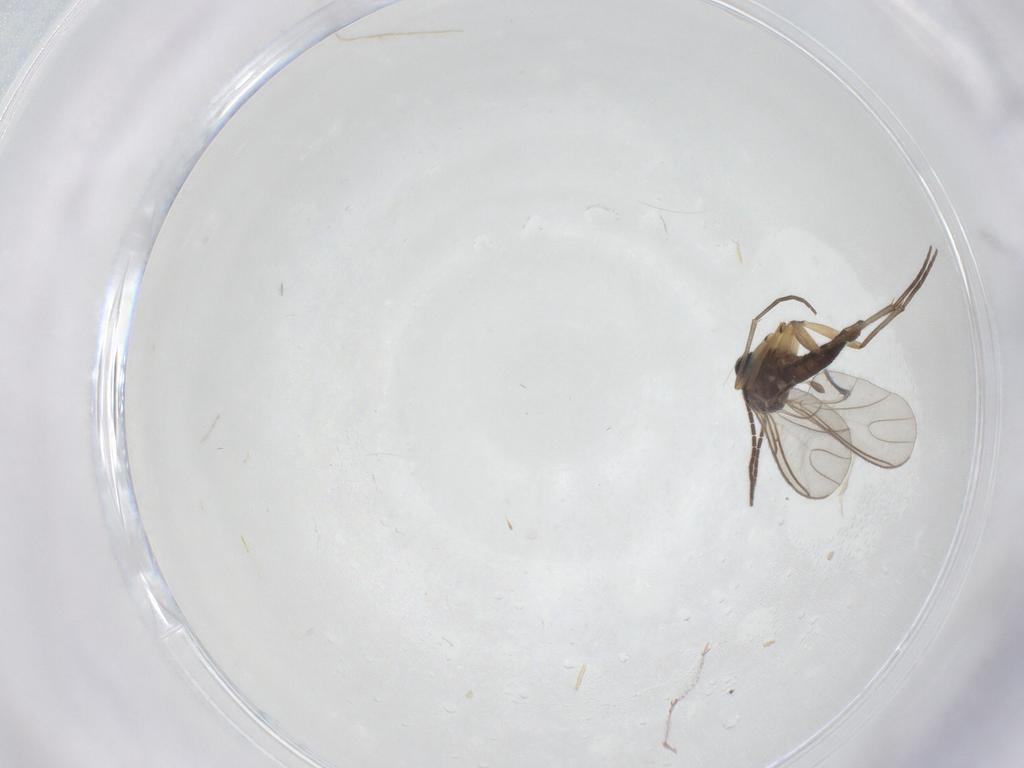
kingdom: Animalia
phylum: Arthropoda
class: Insecta
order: Diptera
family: Sciaridae
